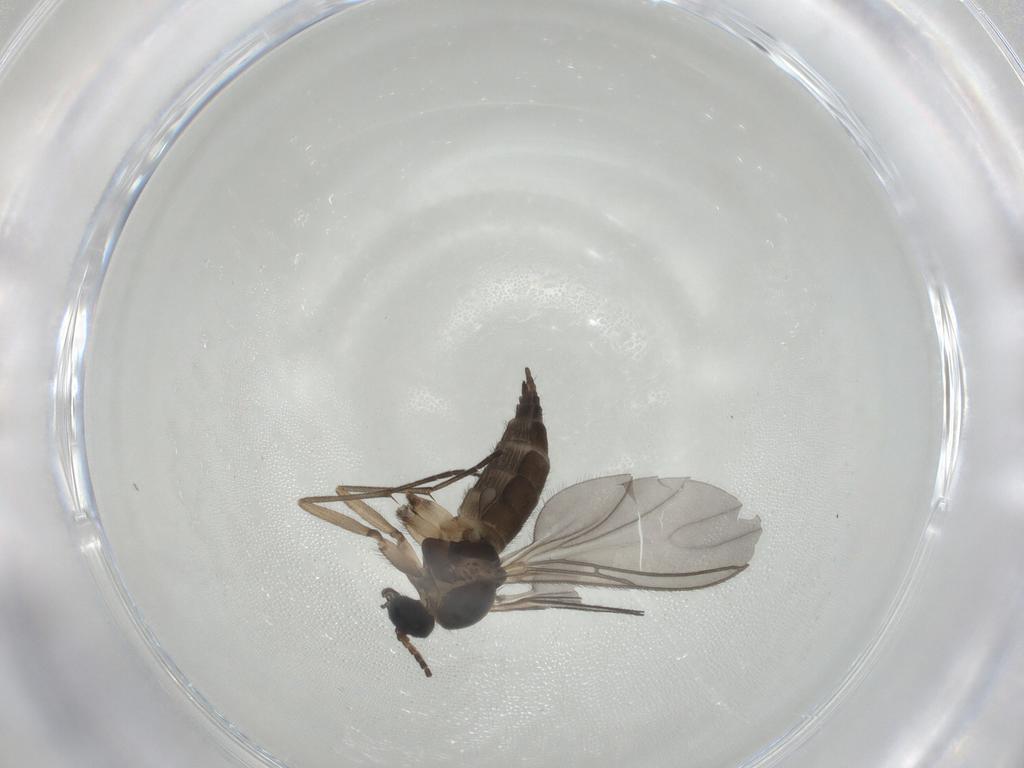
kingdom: Animalia
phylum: Arthropoda
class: Insecta
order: Diptera
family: Sciaridae
